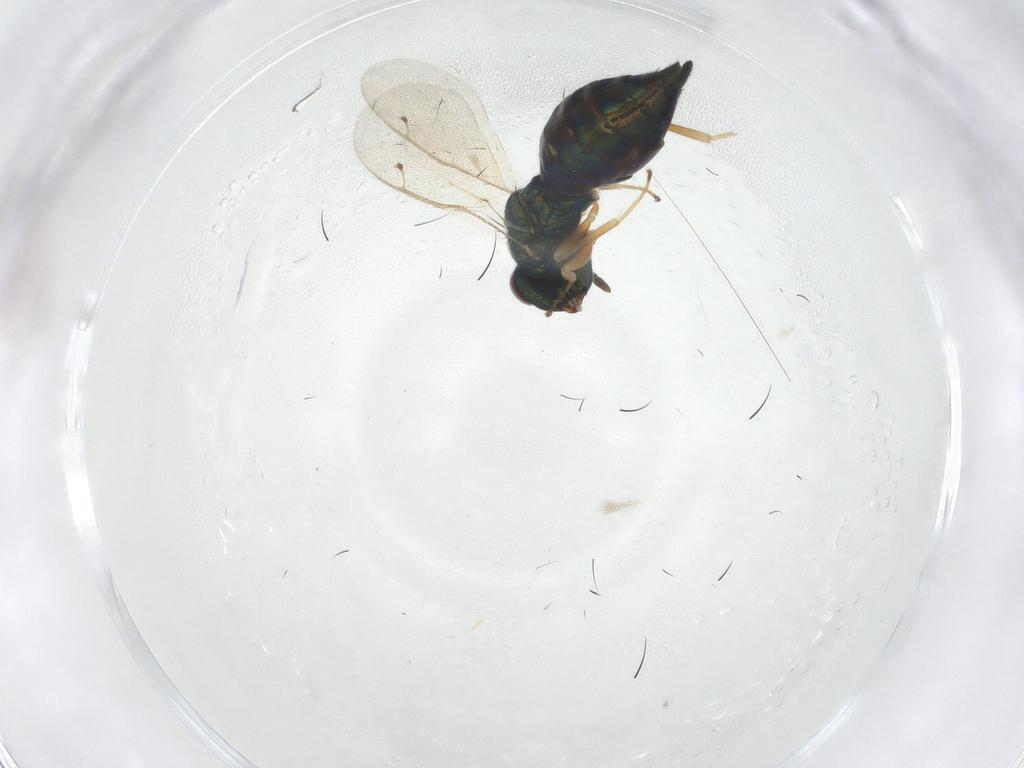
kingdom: Animalia
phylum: Arthropoda
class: Insecta
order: Hymenoptera
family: Pteromalidae
